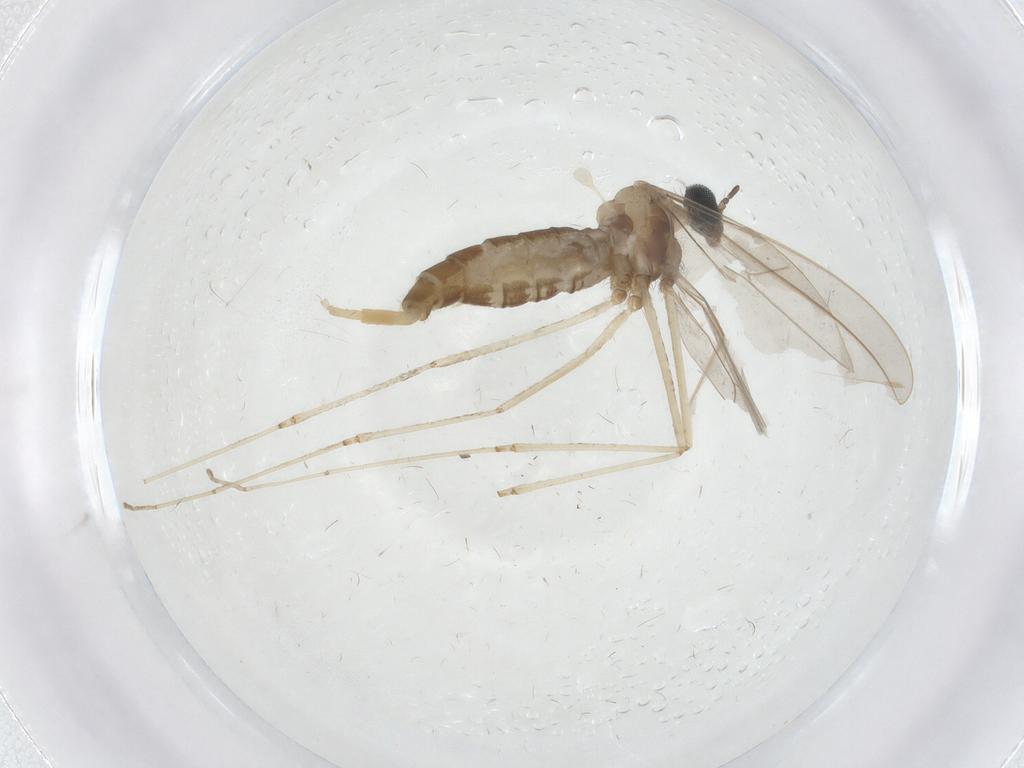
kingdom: Animalia
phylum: Arthropoda
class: Insecta
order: Diptera
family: Cecidomyiidae
